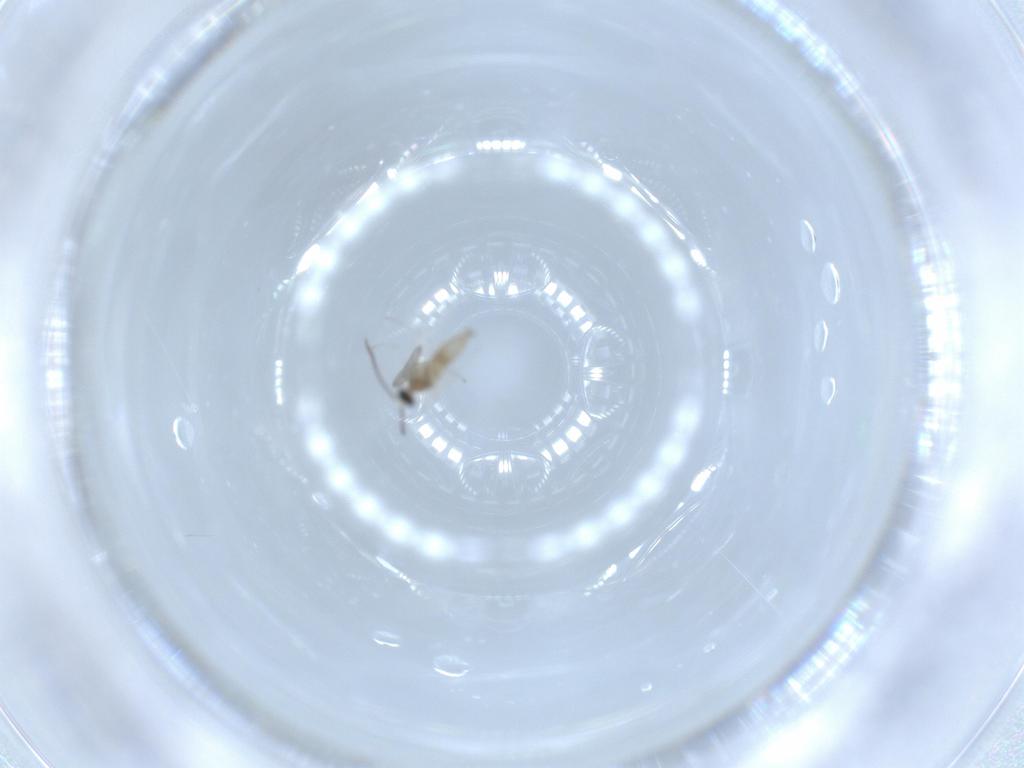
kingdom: Animalia
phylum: Arthropoda
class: Insecta
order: Diptera
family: Cecidomyiidae
